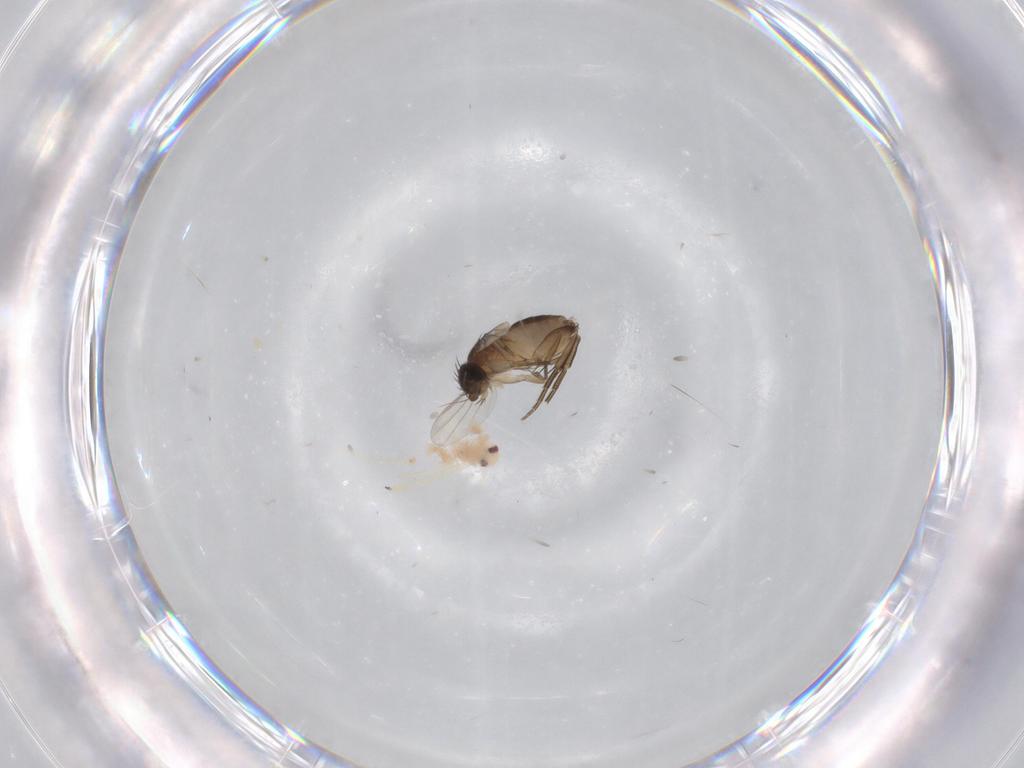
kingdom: Animalia
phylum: Arthropoda
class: Insecta
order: Diptera
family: Phoridae
